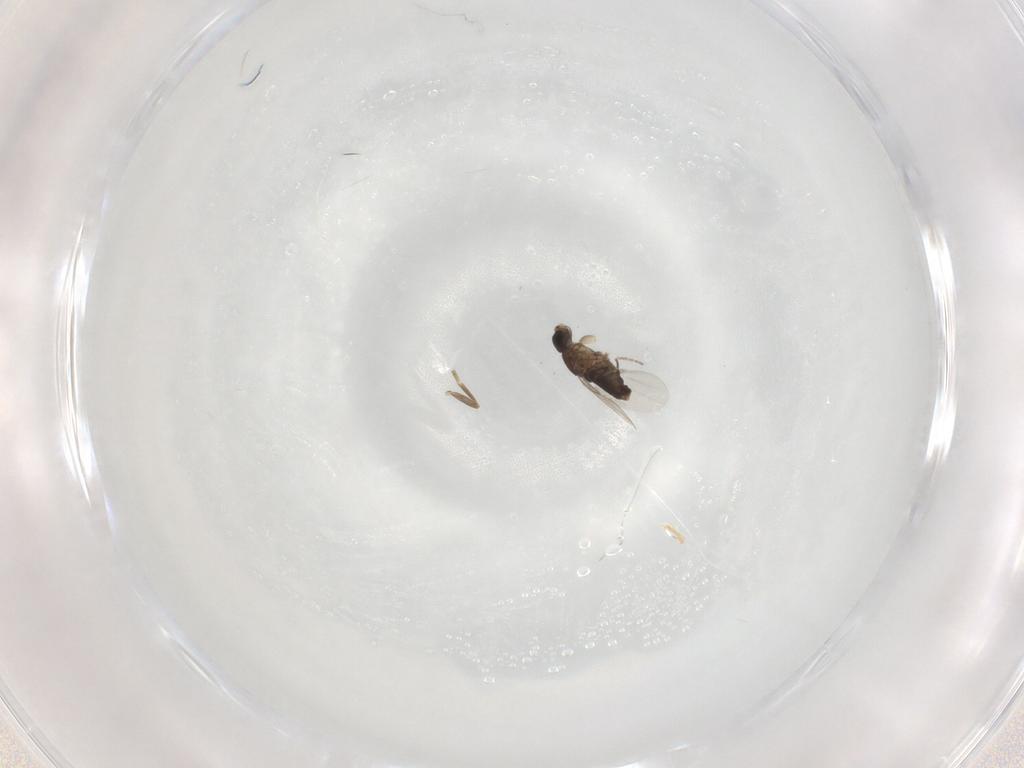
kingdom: Animalia
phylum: Arthropoda
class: Insecta
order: Diptera
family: Phoridae
